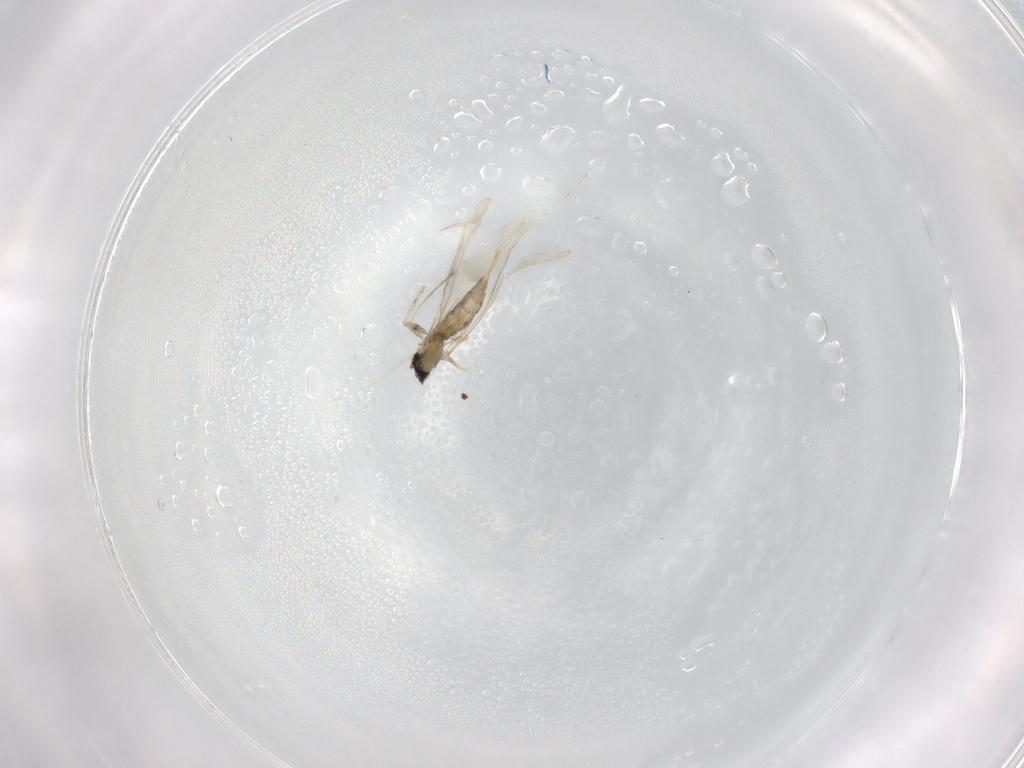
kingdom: Animalia
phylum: Arthropoda
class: Insecta
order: Diptera
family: Cecidomyiidae
